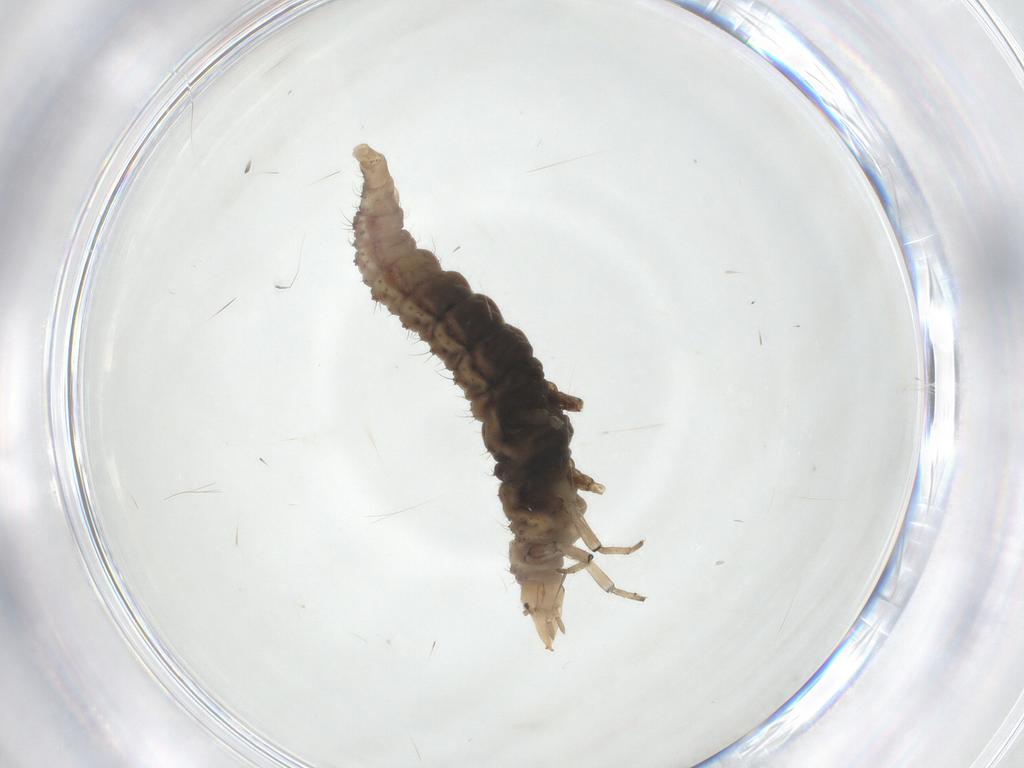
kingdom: Animalia
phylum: Arthropoda
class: Insecta
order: Neuroptera
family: Hemerobiidae
